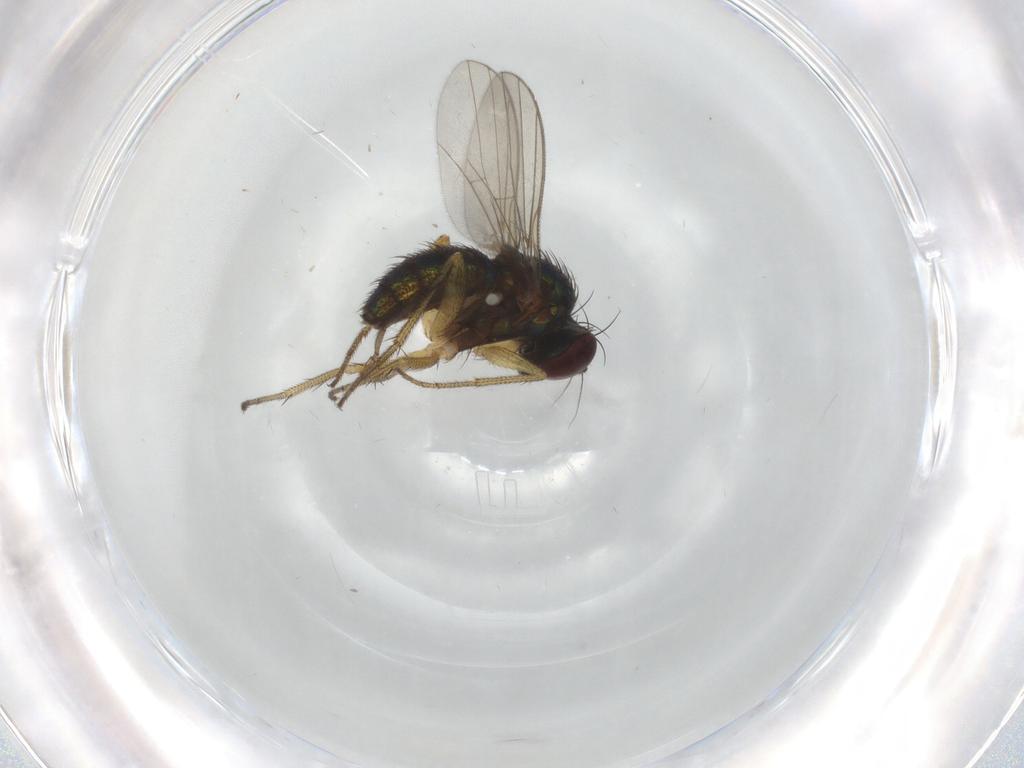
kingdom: Animalia
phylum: Arthropoda
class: Insecta
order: Diptera
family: Sciaridae
